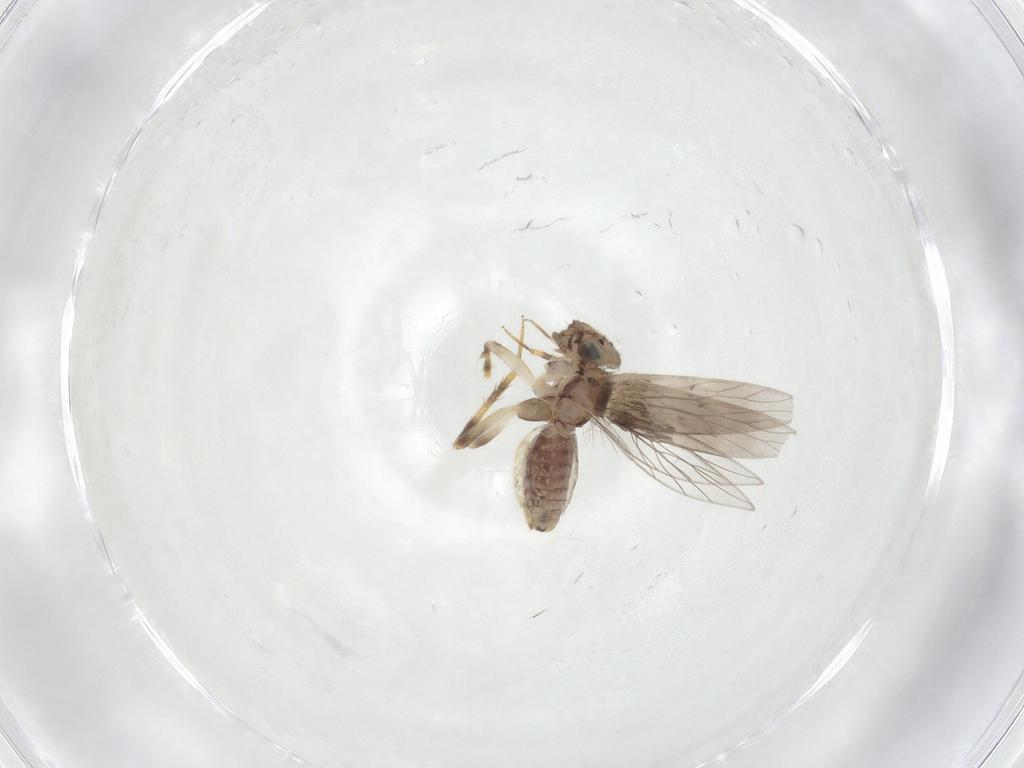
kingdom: Animalia
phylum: Arthropoda
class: Insecta
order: Psocodea
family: Lepidopsocidae
